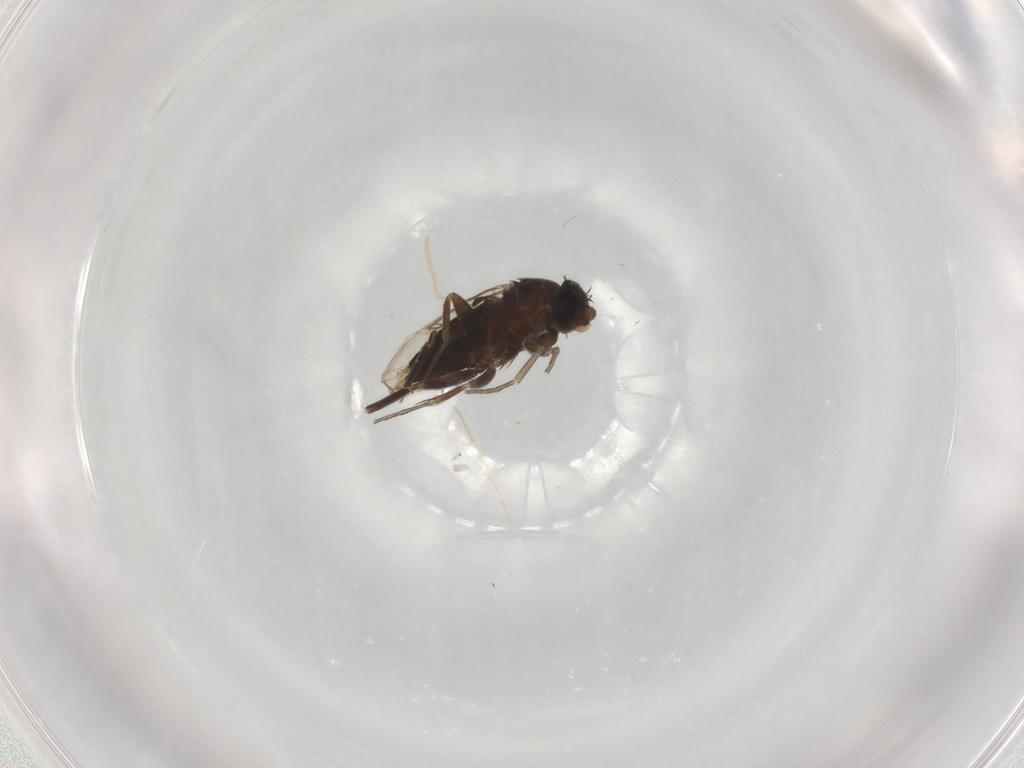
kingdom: Animalia
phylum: Arthropoda
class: Insecta
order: Diptera
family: Phoridae
